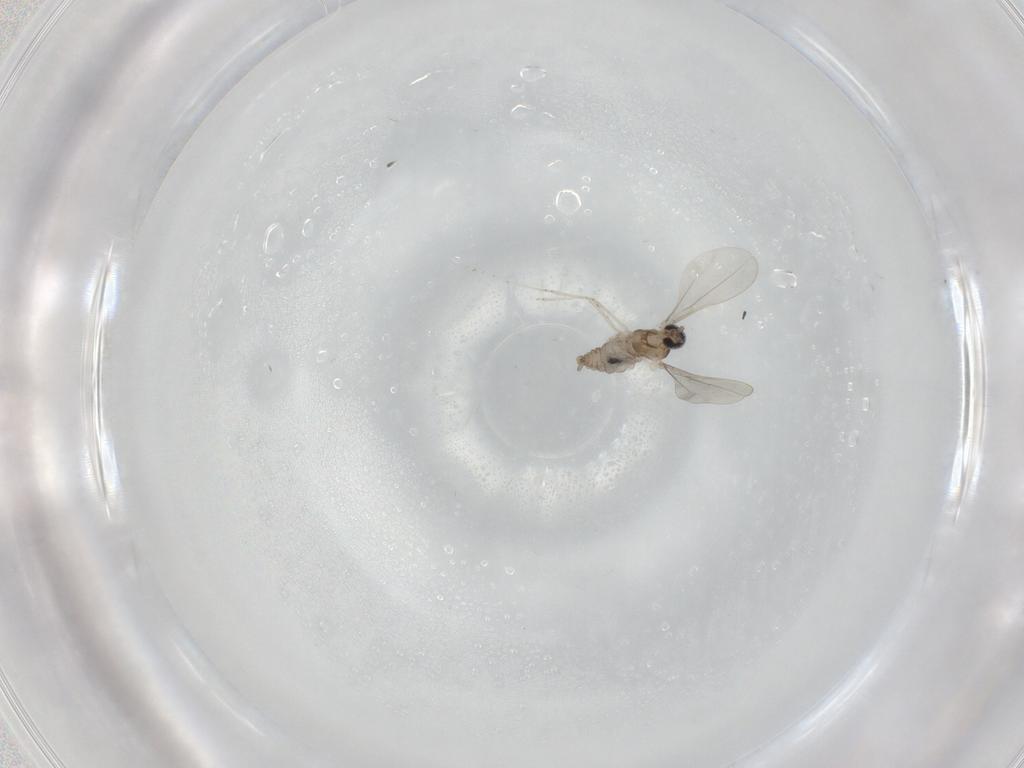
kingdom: Animalia
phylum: Arthropoda
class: Insecta
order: Diptera
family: Cecidomyiidae
